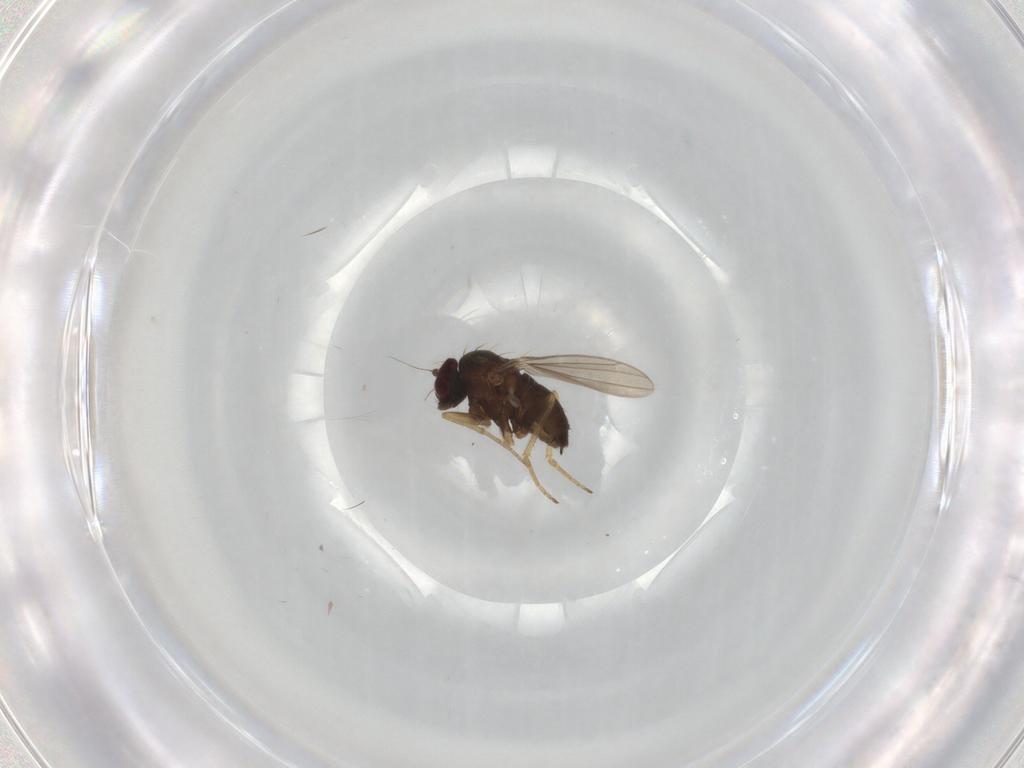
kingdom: Animalia
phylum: Arthropoda
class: Insecta
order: Diptera
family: Dolichopodidae
